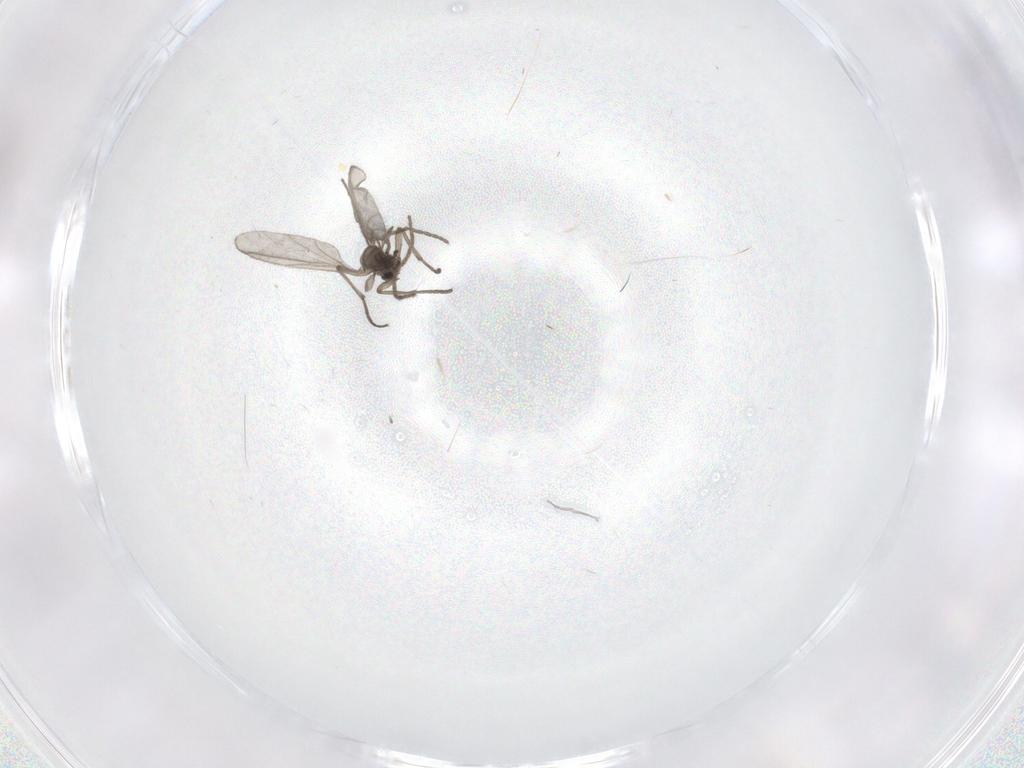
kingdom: Animalia
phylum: Arthropoda
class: Insecta
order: Diptera
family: Sciaridae
